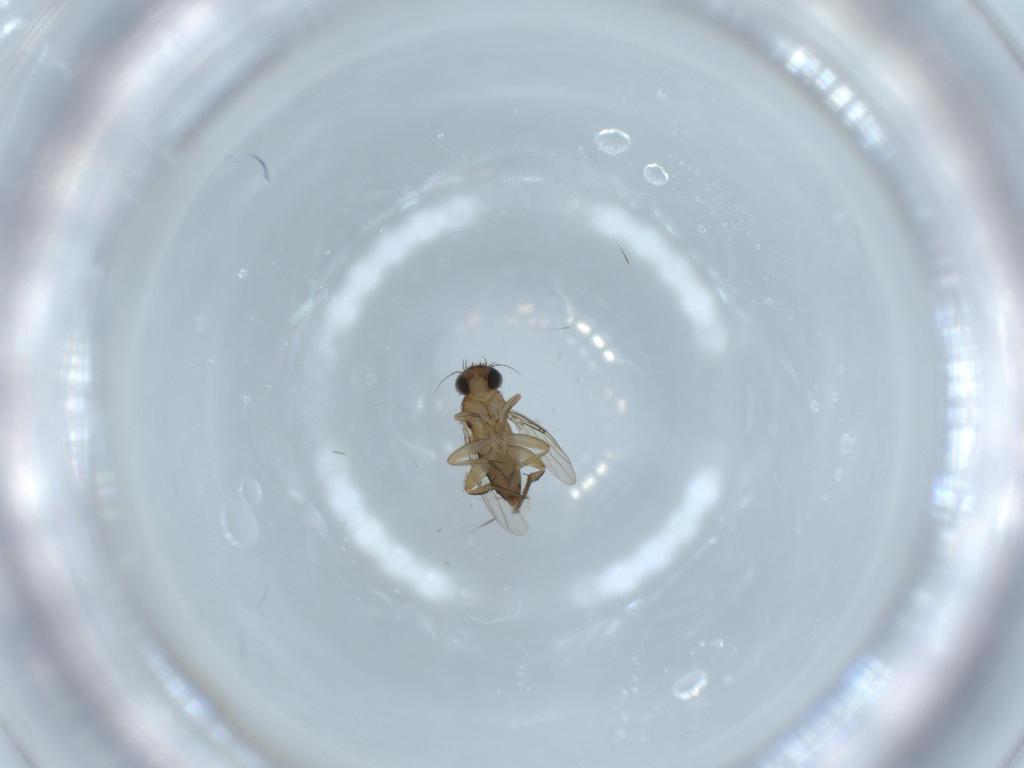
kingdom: Animalia
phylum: Arthropoda
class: Insecta
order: Diptera
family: Phoridae
